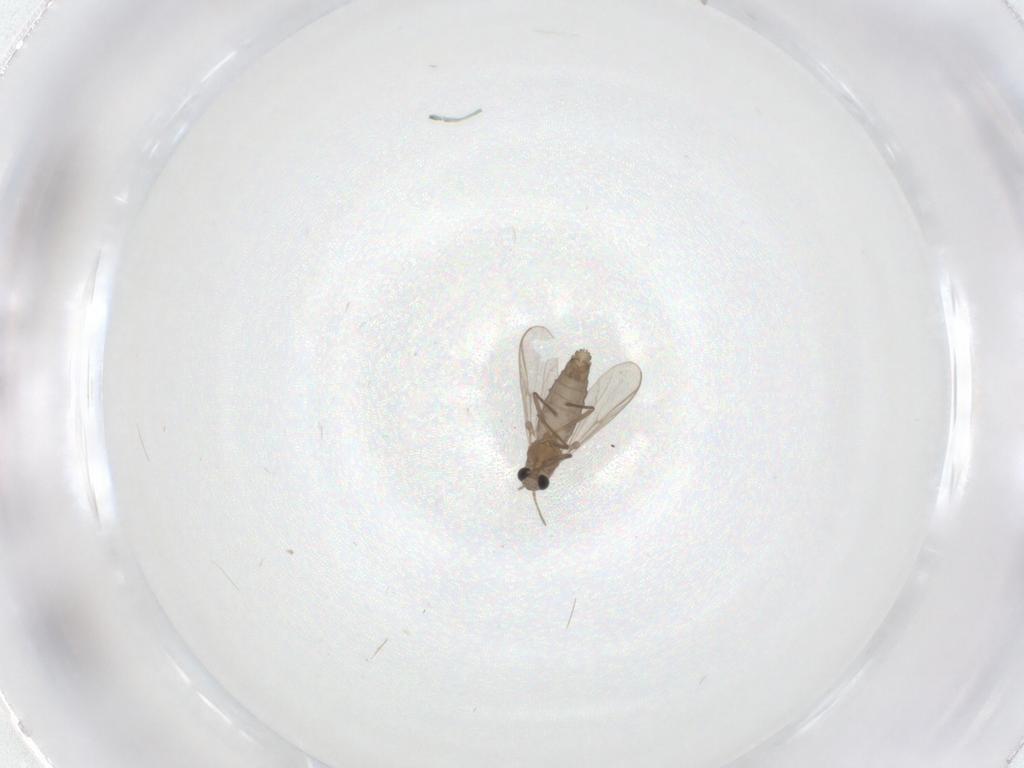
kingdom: Animalia
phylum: Arthropoda
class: Insecta
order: Diptera
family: Chironomidae
